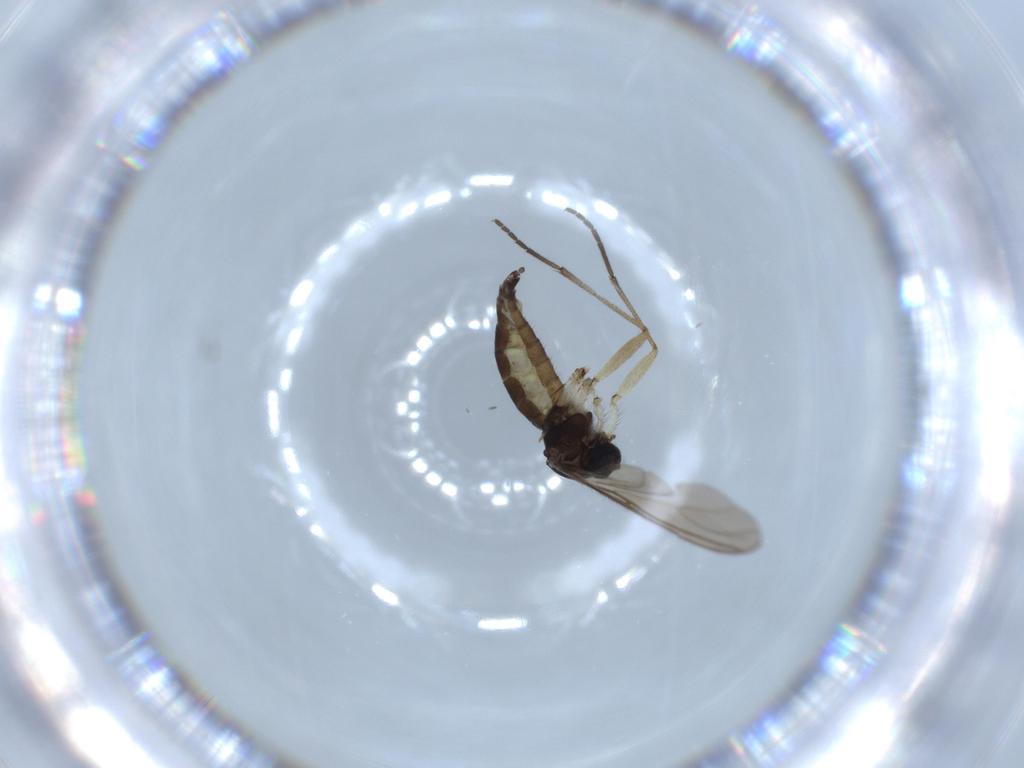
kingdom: Animalia
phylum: Arthropoda
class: Insecta
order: Diptera
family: Sciaridae
